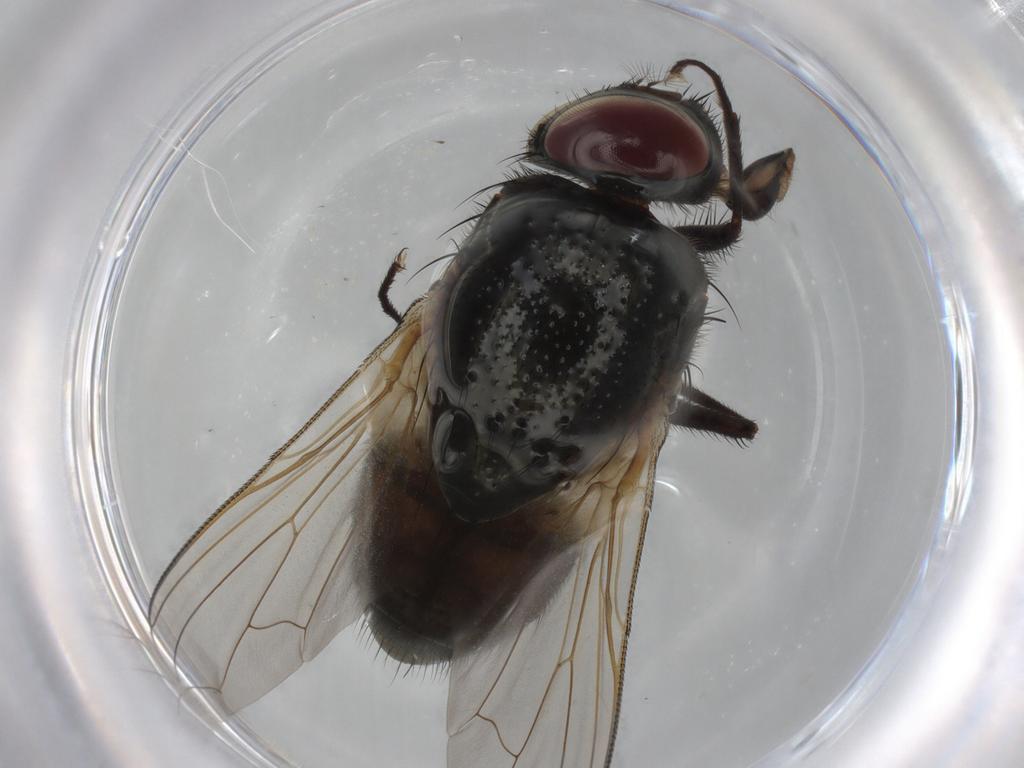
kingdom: Animalia
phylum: Arthropoda
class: Insecta
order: Diptera
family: Muscidae
